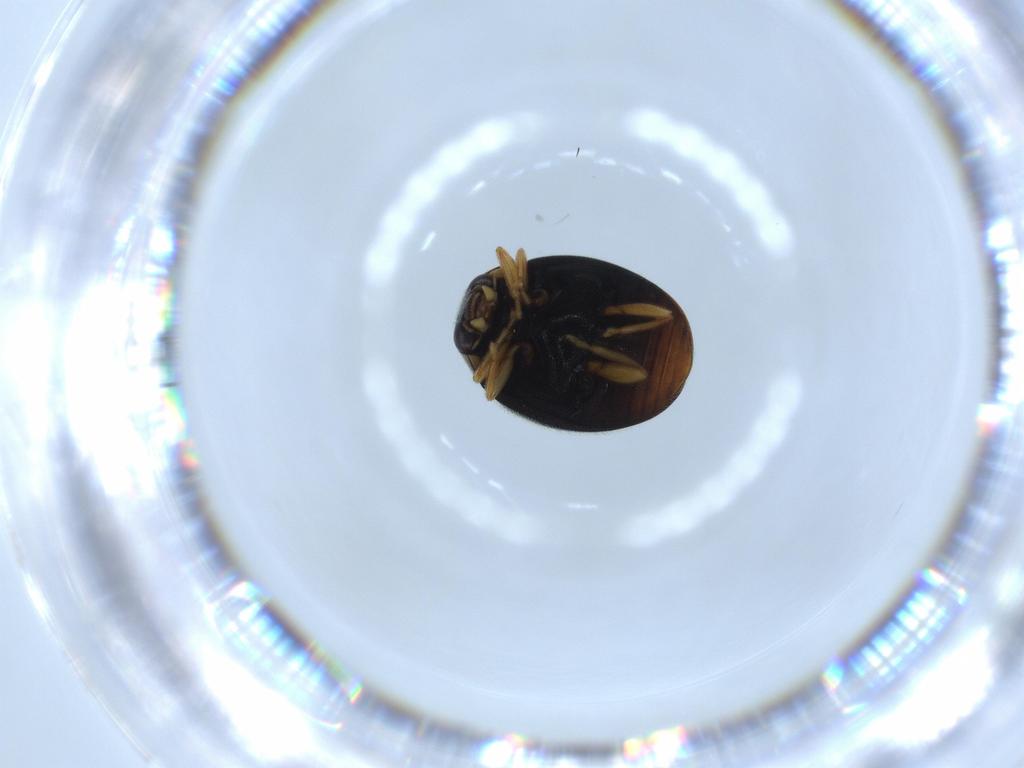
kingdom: Animalia
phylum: Arthropoda
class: Insecta
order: Coleoptera
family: Coccinellidae
